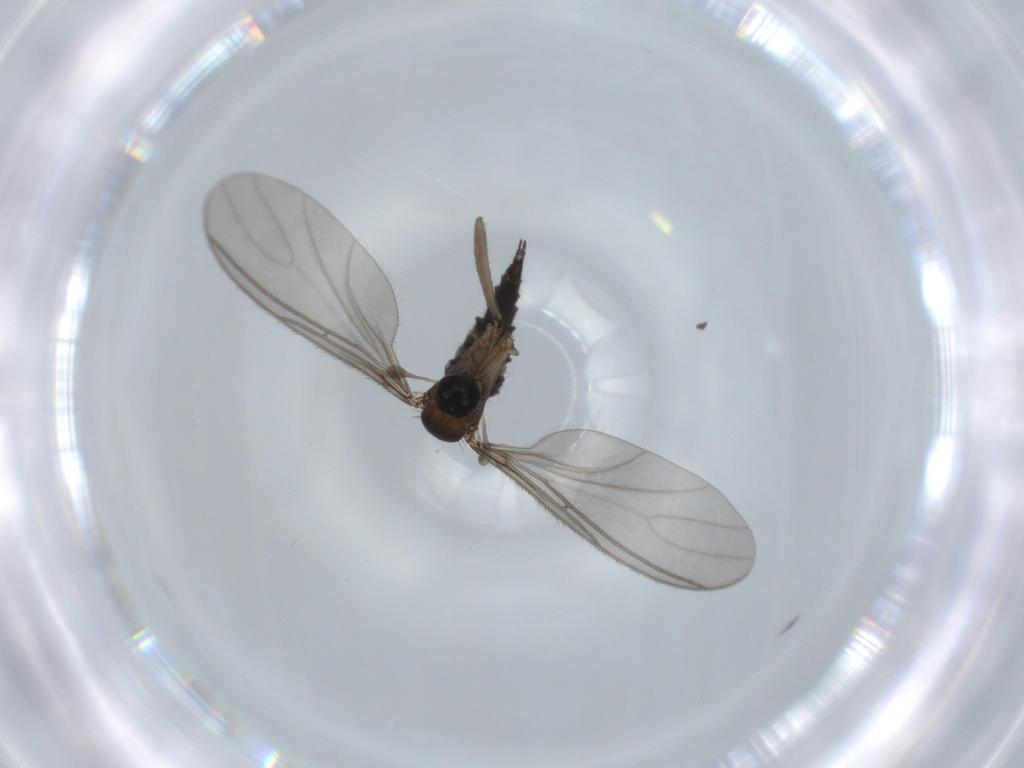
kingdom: Animalia
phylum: Arthropoda
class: Insecta
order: Diptera
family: Sciaridae
